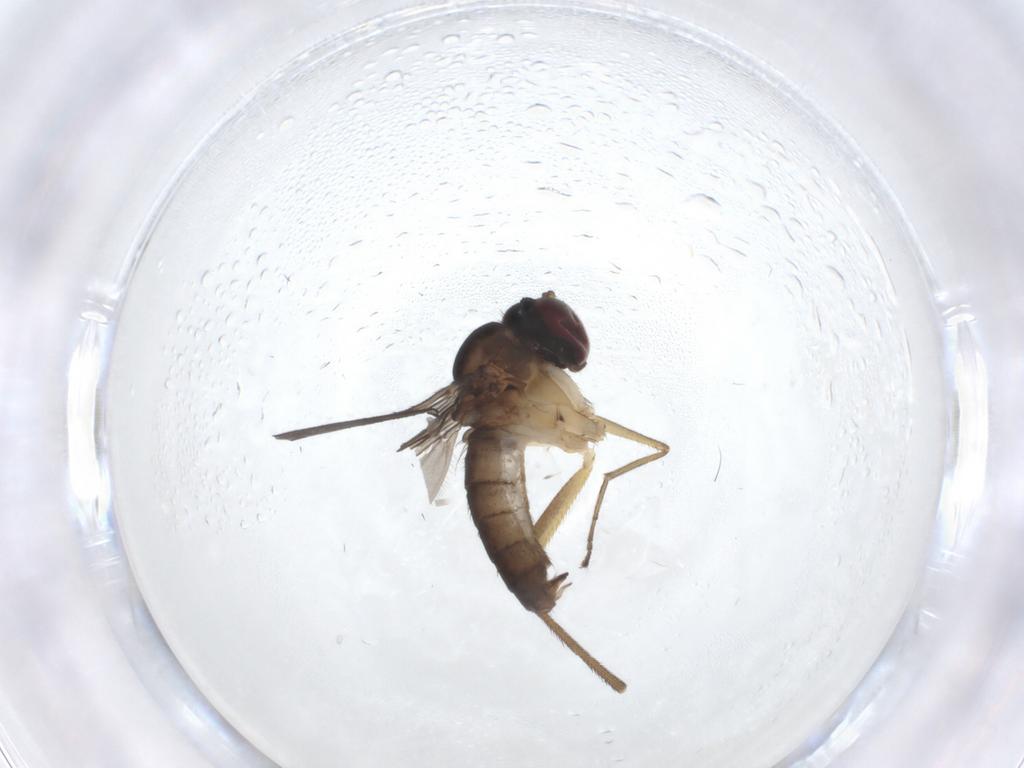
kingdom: Animalia
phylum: Arthropoda
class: Insecta
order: Diptera
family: Dolichopodidae
